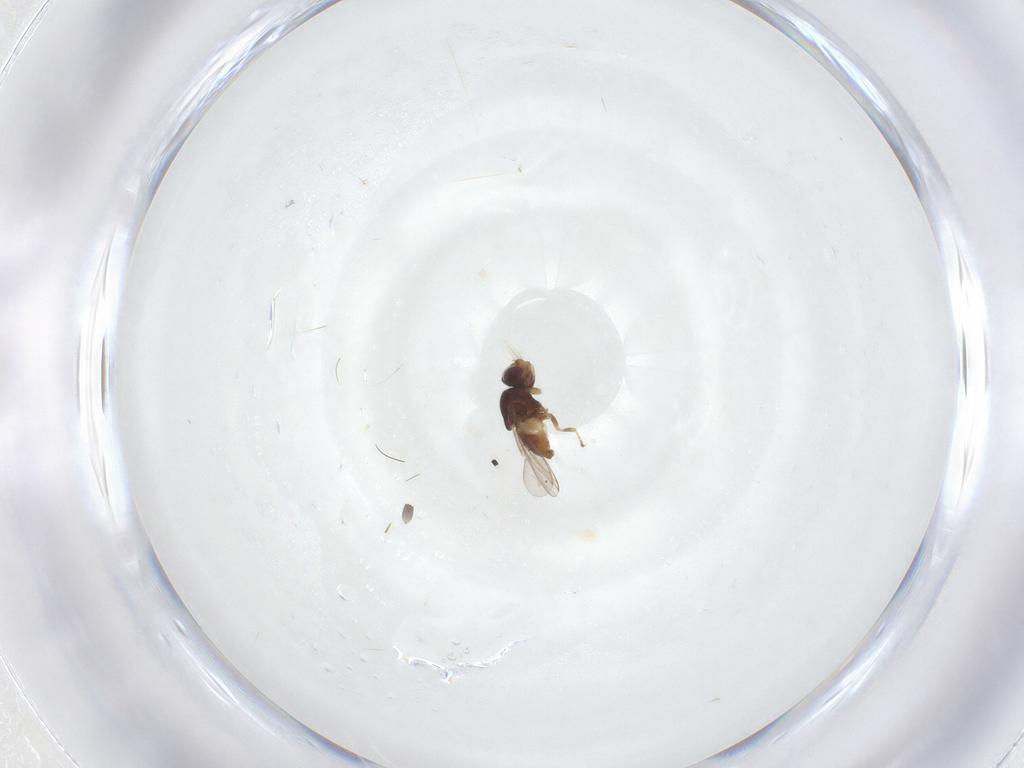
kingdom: Animalia
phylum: Arthropoda
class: Insecta
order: Diptera
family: Chloropidae
